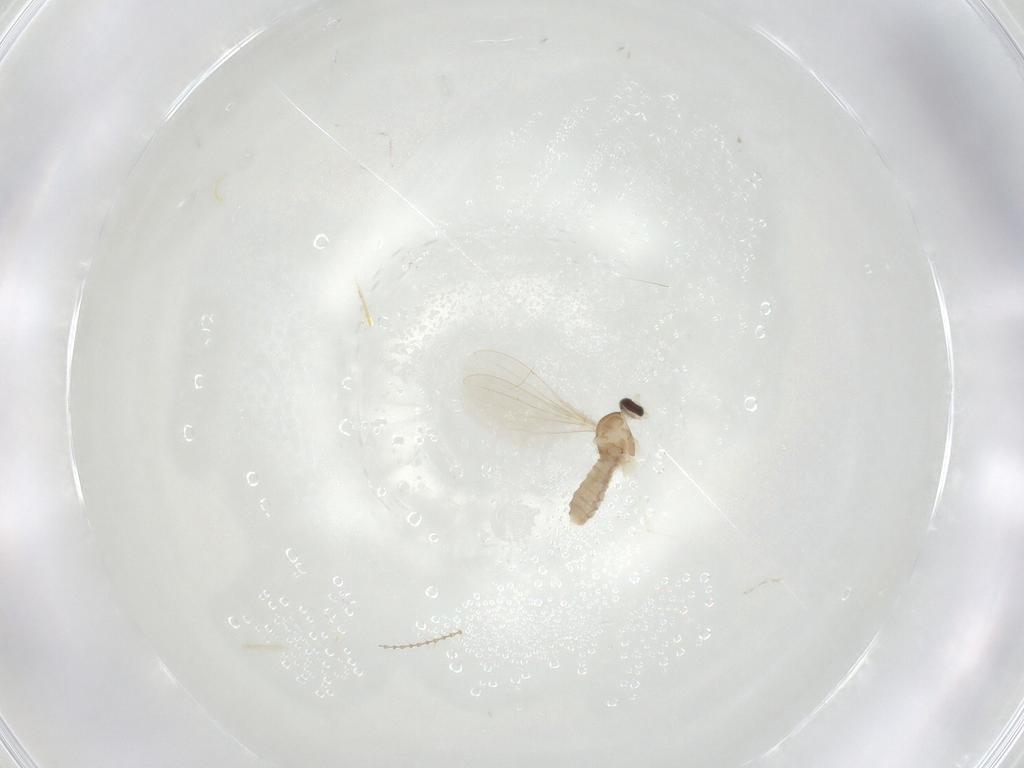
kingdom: Animalia
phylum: Arthropoda
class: Insecta
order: Diptera
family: Cecidomyiidae
